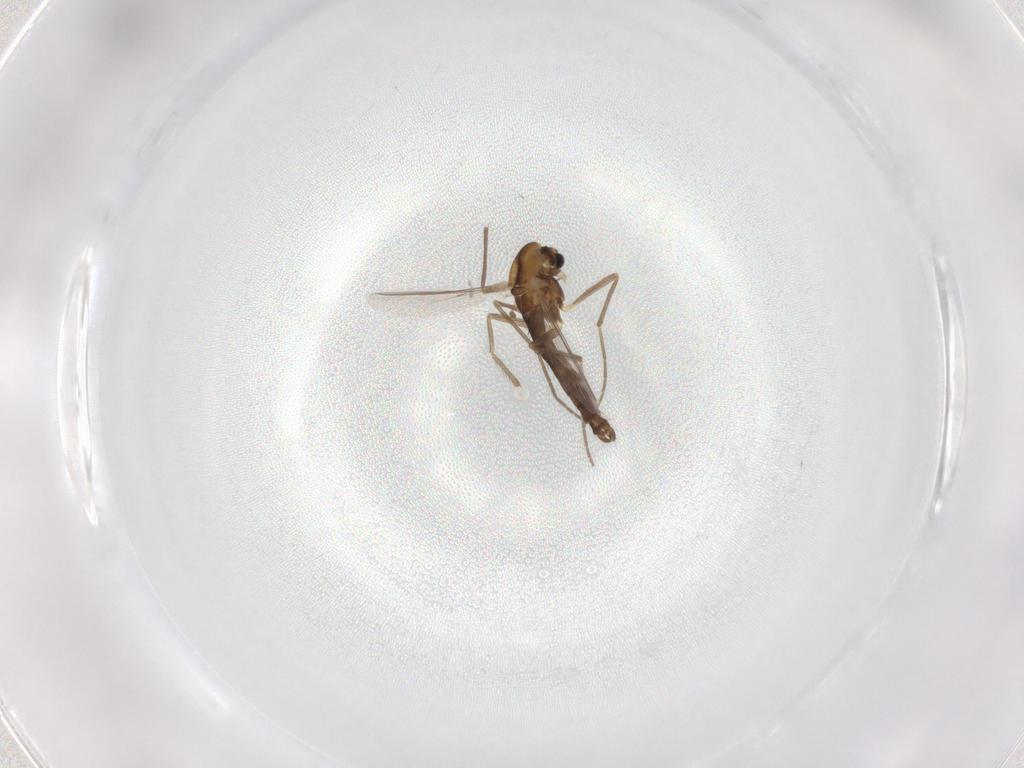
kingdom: Animalia
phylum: Arthropoda
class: Insecta
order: Diptera
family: Chironomidae
